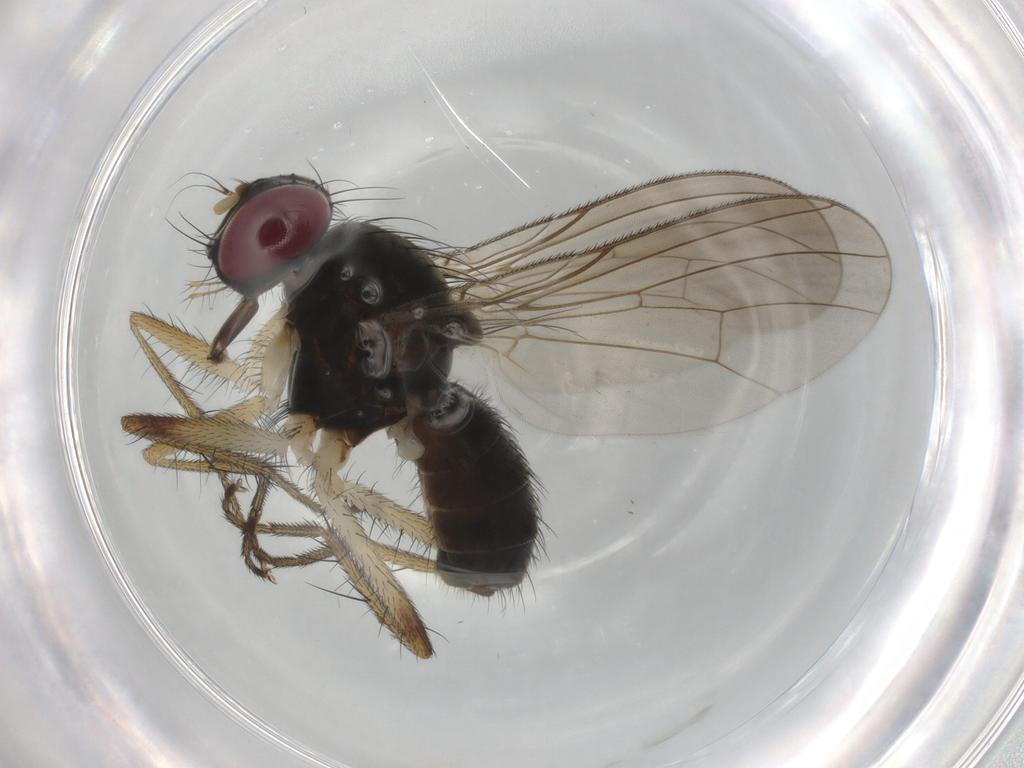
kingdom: Animalia
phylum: Arthropoda
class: Insecta
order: Diptera
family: Muscidae
